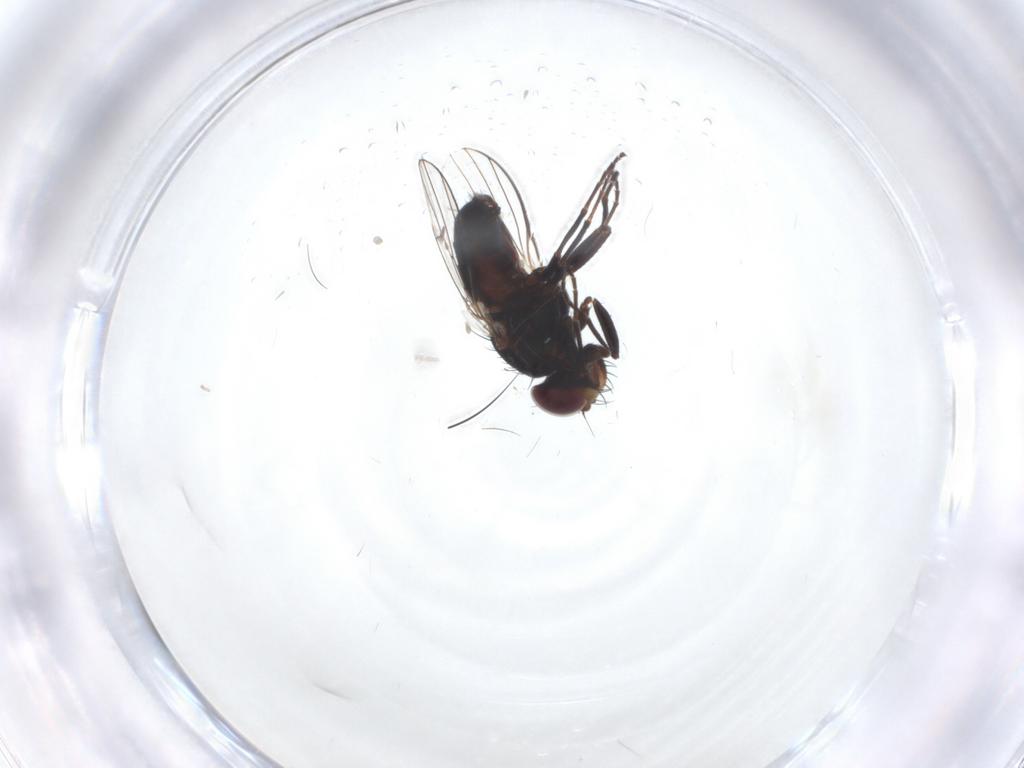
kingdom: Animalia
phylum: Arthropoda
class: Insecta
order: Diptera
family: Carnidae
